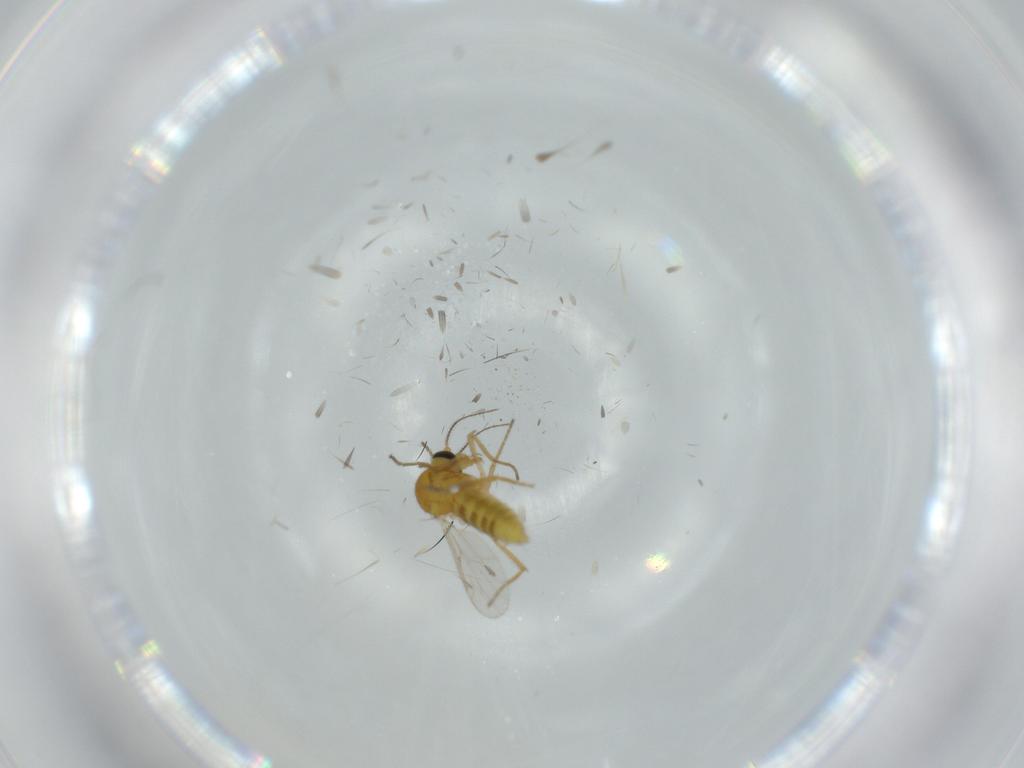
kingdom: Animalia
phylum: Arthropoda
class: Insecta
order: Diptera
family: Ceratopogonidae
